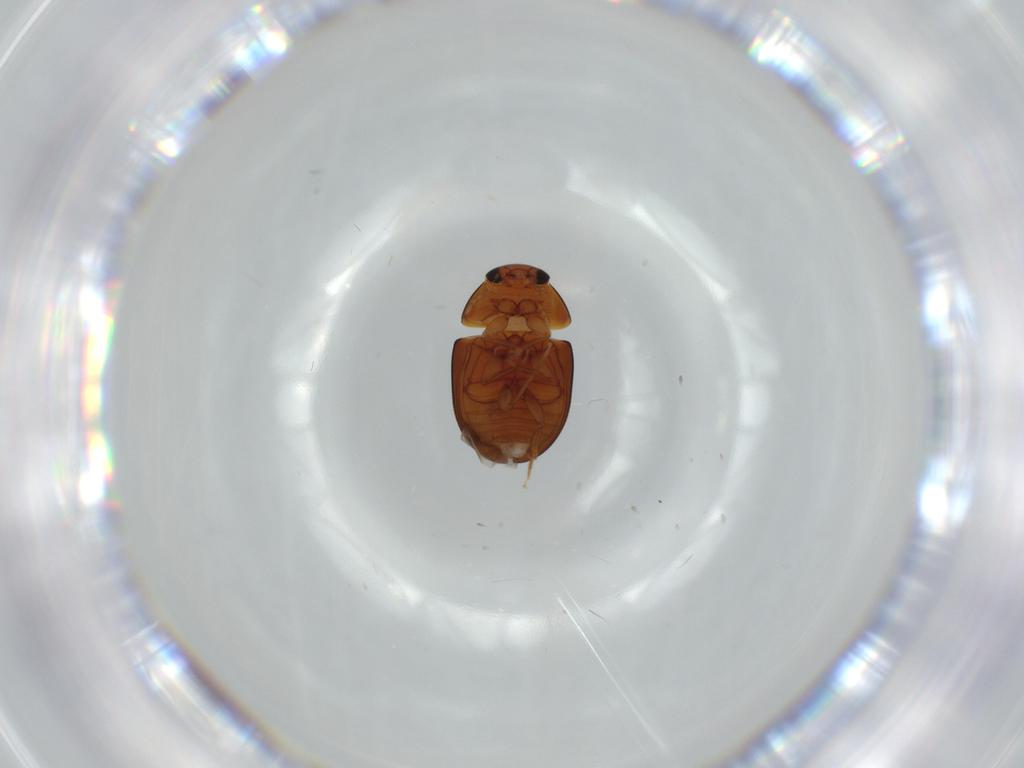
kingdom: Animalia
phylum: Arthropoda
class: Insecta
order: Coleoptera
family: Phalacridae
